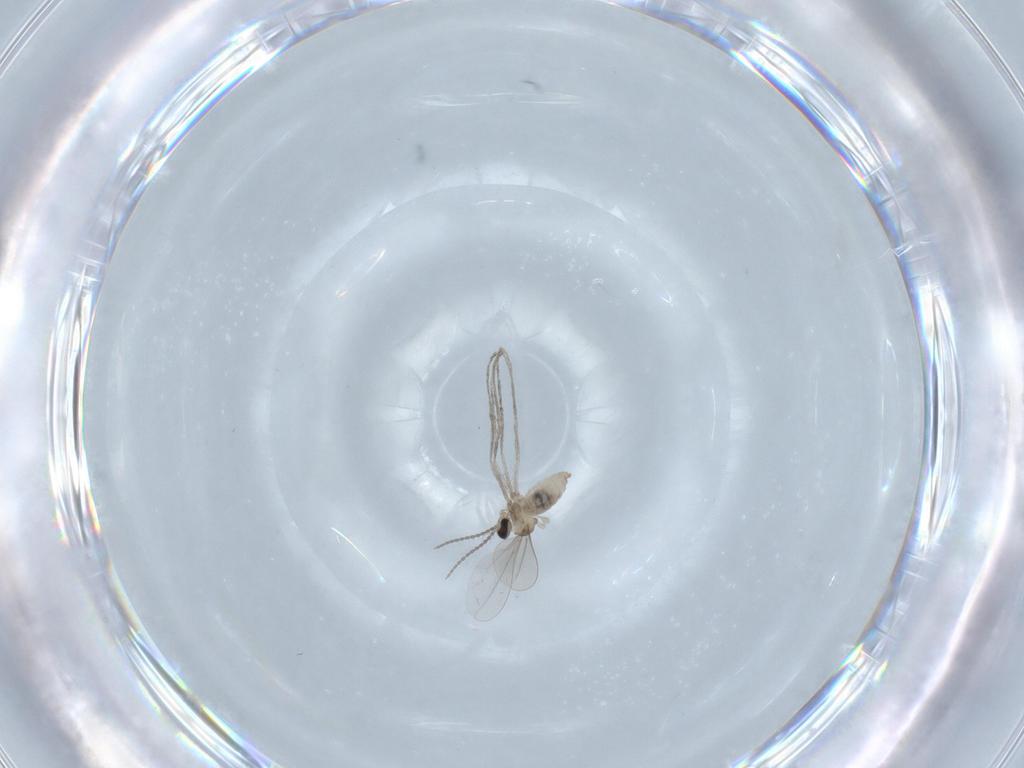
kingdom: Animalia
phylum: Arthropoda
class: Insecta
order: Diptera
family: Cecidomyiidae
